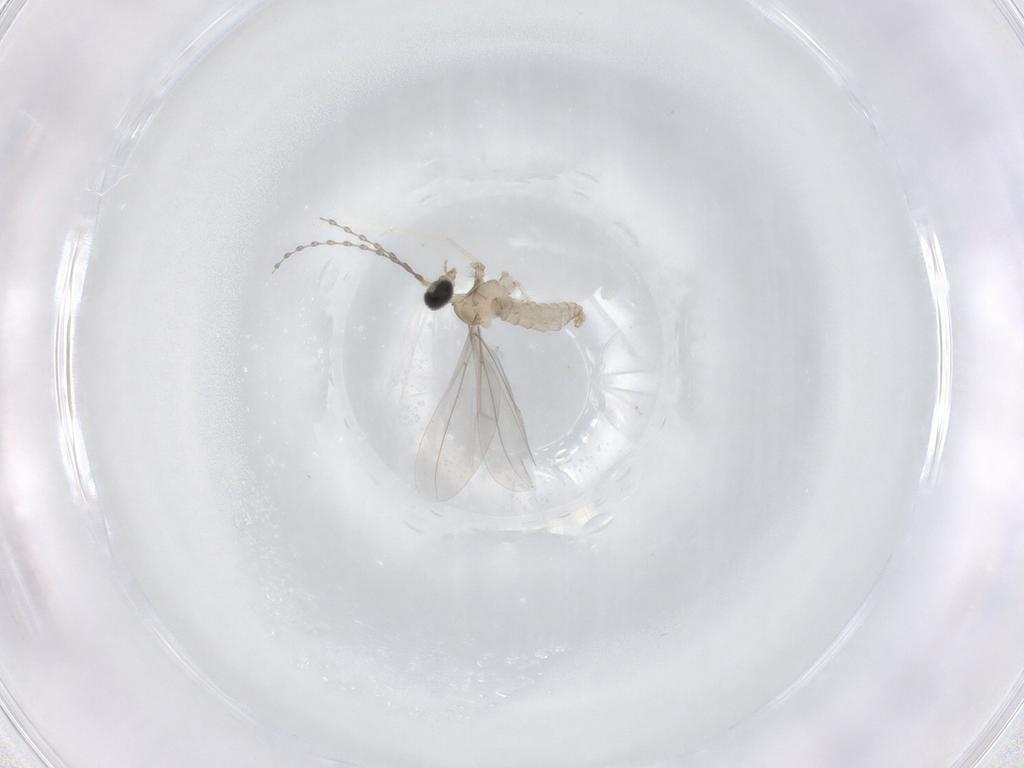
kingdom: Animalia
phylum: Arthropoda
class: Insecta
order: Diptera
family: Cecidomyiidae
